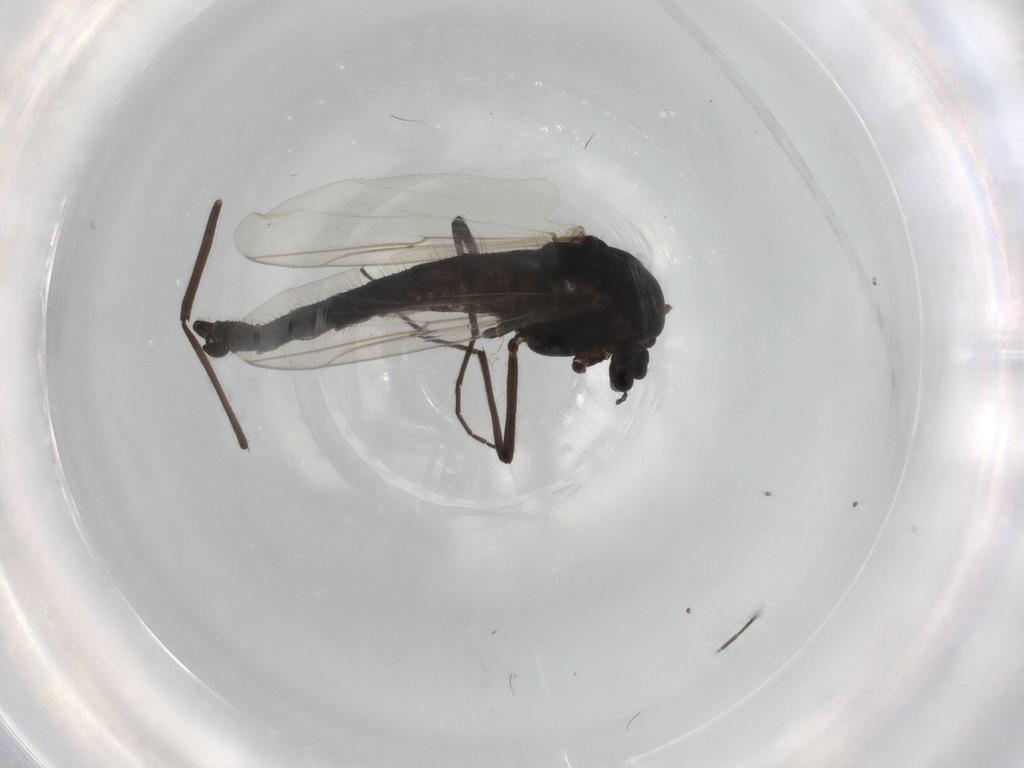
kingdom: Animalia
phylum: Arthropoda
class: Insecta
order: Diptera
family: Chironomidae
